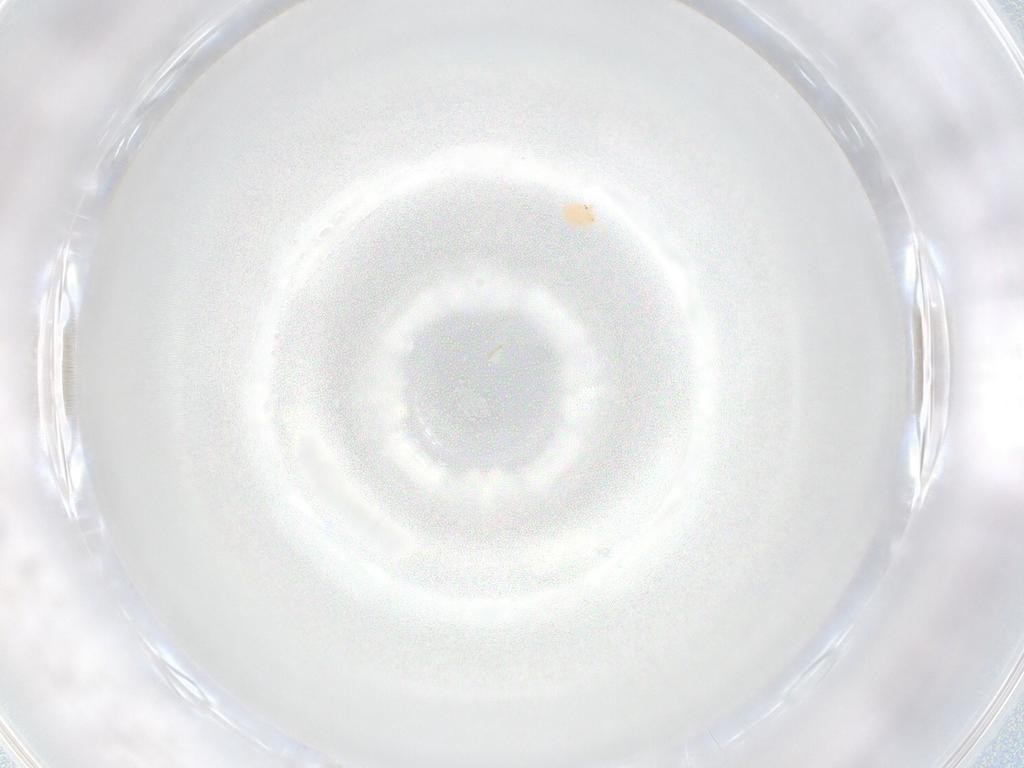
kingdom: Animalia
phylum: Arthropoda
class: Arachnida
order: Trombidiformes
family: Hydryphantidae
